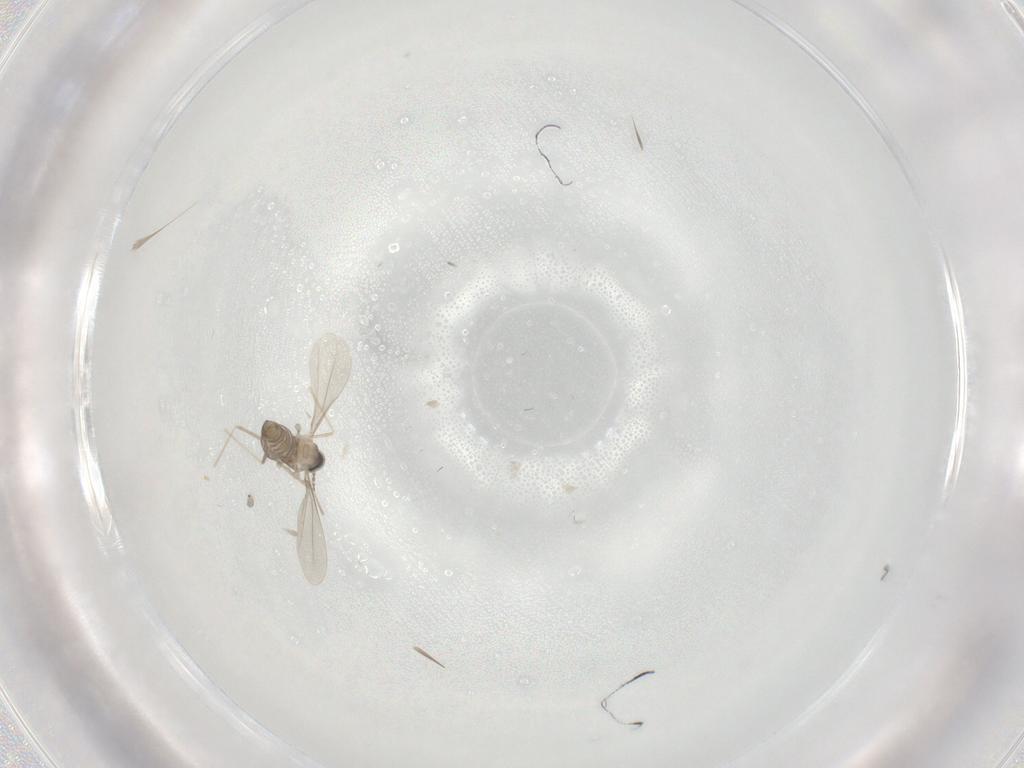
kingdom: Animalia
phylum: Arthropoda
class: Insecta
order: Diptera
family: Cecidomyiidae
